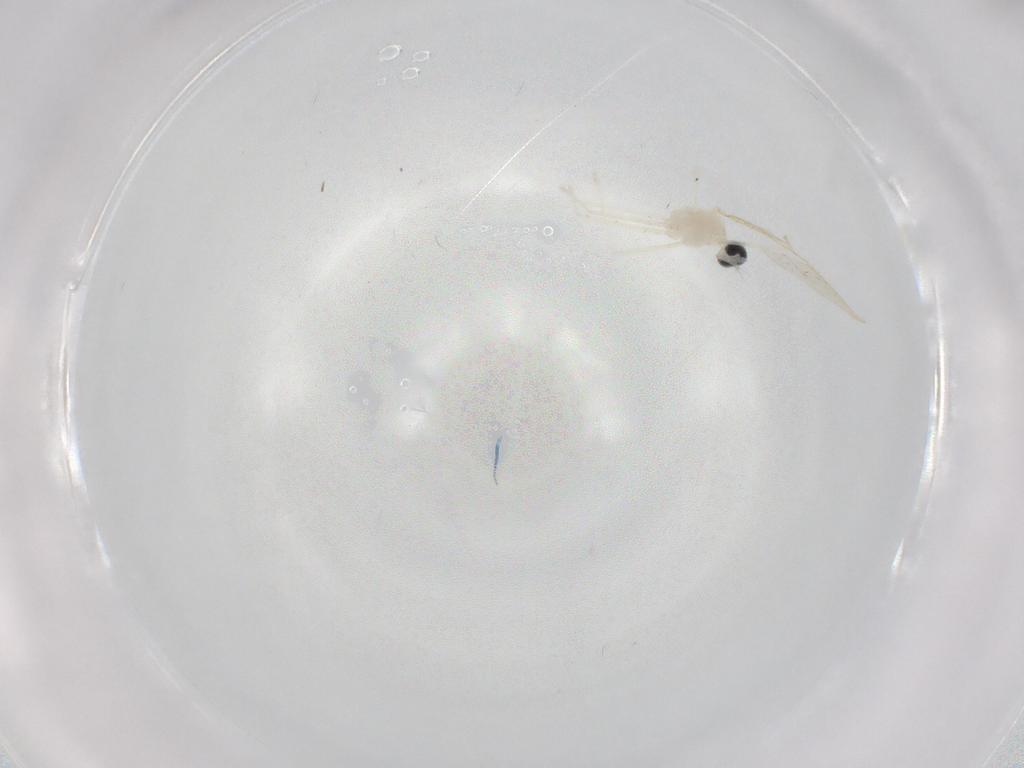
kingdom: Animalia
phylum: Arthropoda
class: Insecta
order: Diptera
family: Cecidomyiidae
